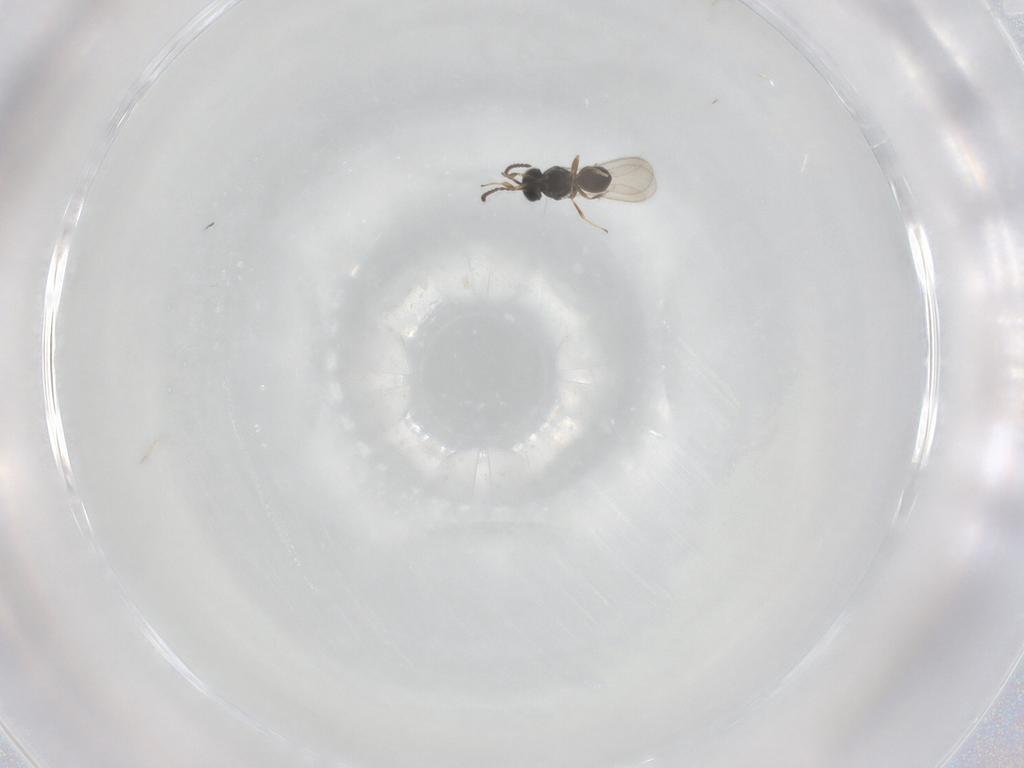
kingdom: Animalia
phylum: Arthropoda
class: Insecta
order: Hymenoptera
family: Scelionidae
